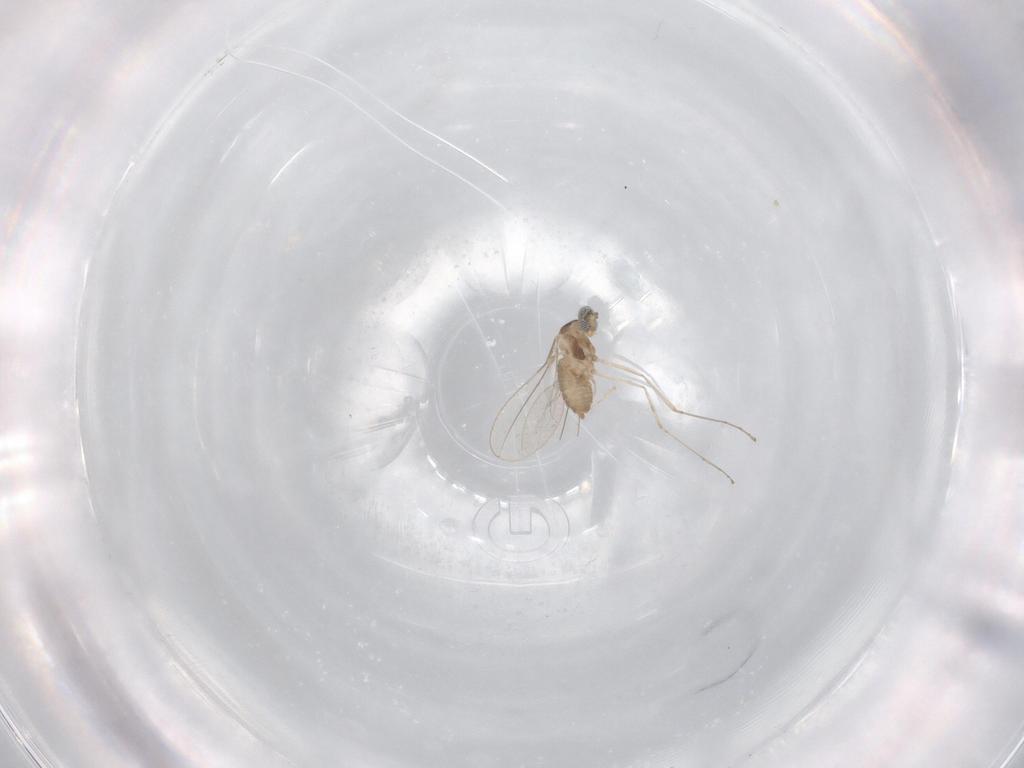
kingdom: Animalia
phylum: Arthropoda
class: Insecta
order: Diptera
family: Cecidomyiidae
